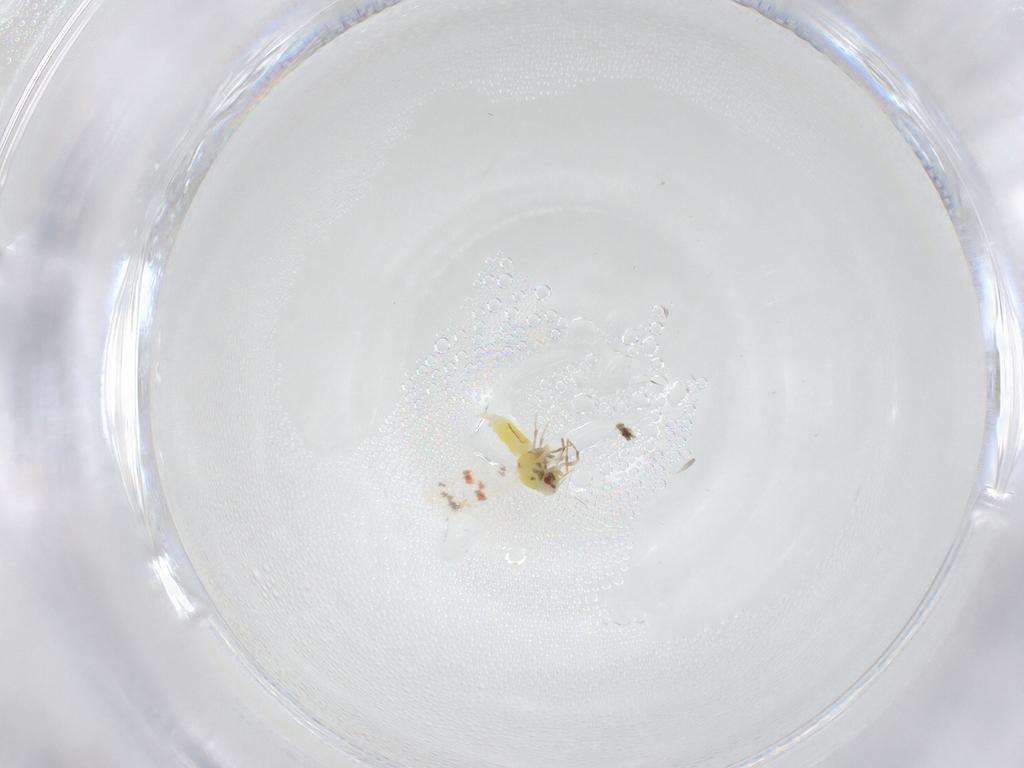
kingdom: Animalia
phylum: Arthropoda
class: Insecta
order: Hemiptera
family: Aleyrodidae
